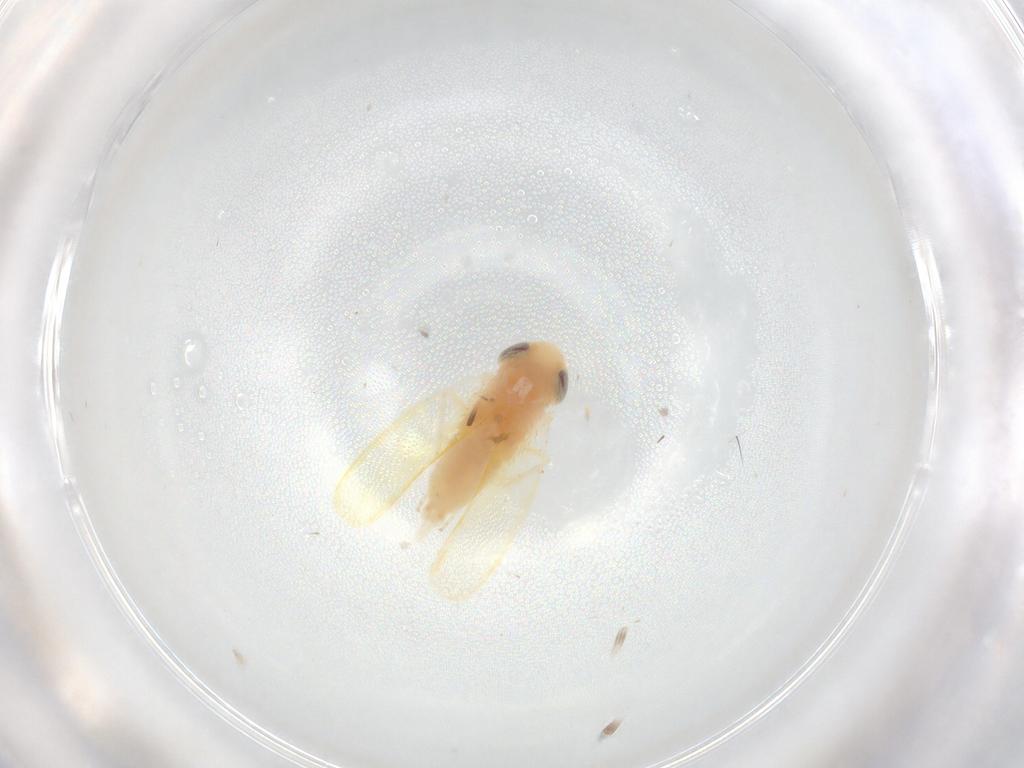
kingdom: Animalia
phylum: Arthropoda
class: Insecta
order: Hemiptera
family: Cicadellidae
